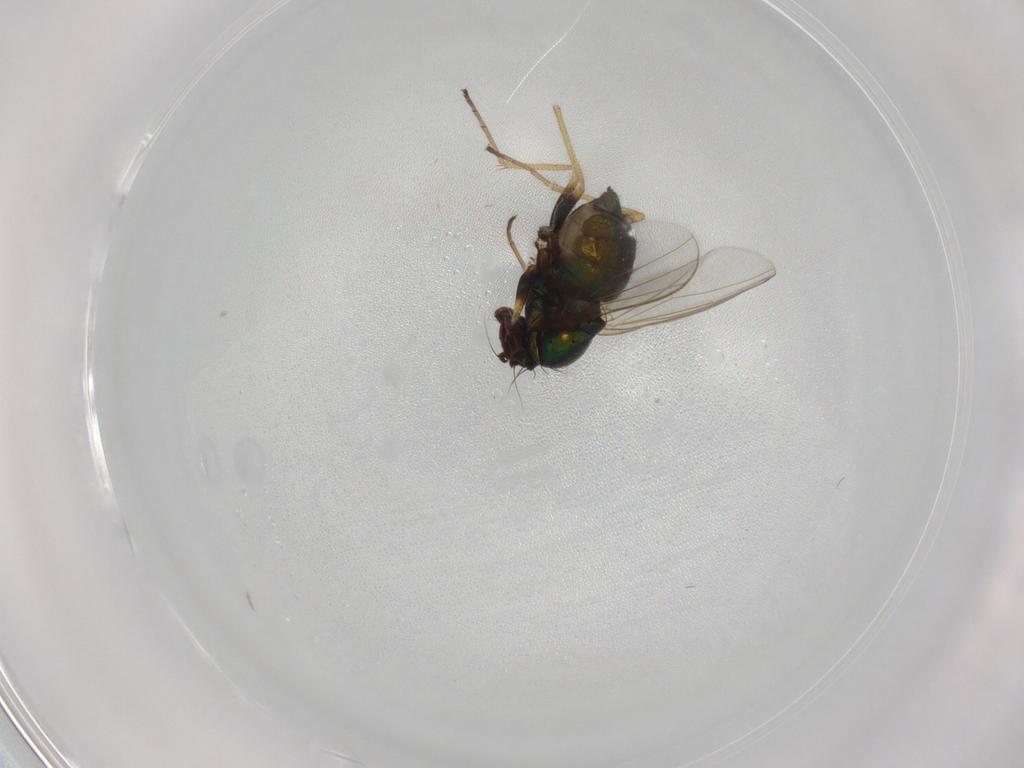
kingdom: Animalia
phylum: Arthropoda
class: Insecta
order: Diptera
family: Dolichopodidae
